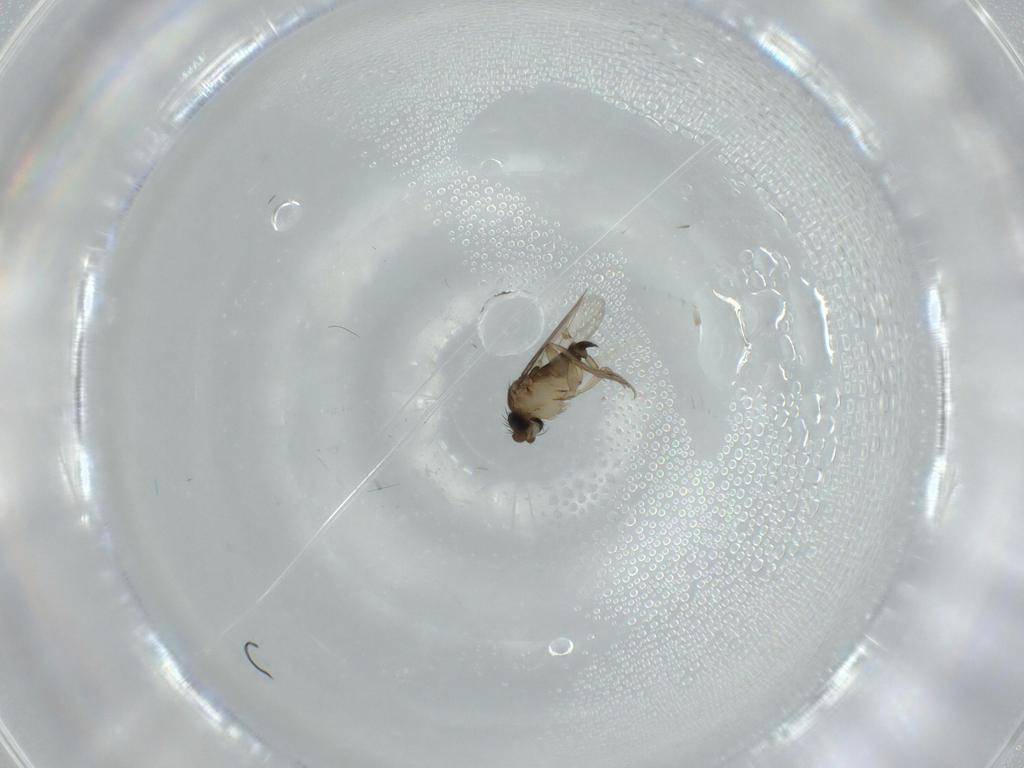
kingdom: Animalia
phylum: Arthropoda
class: Insecta
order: Diptera
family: Psychodidae
